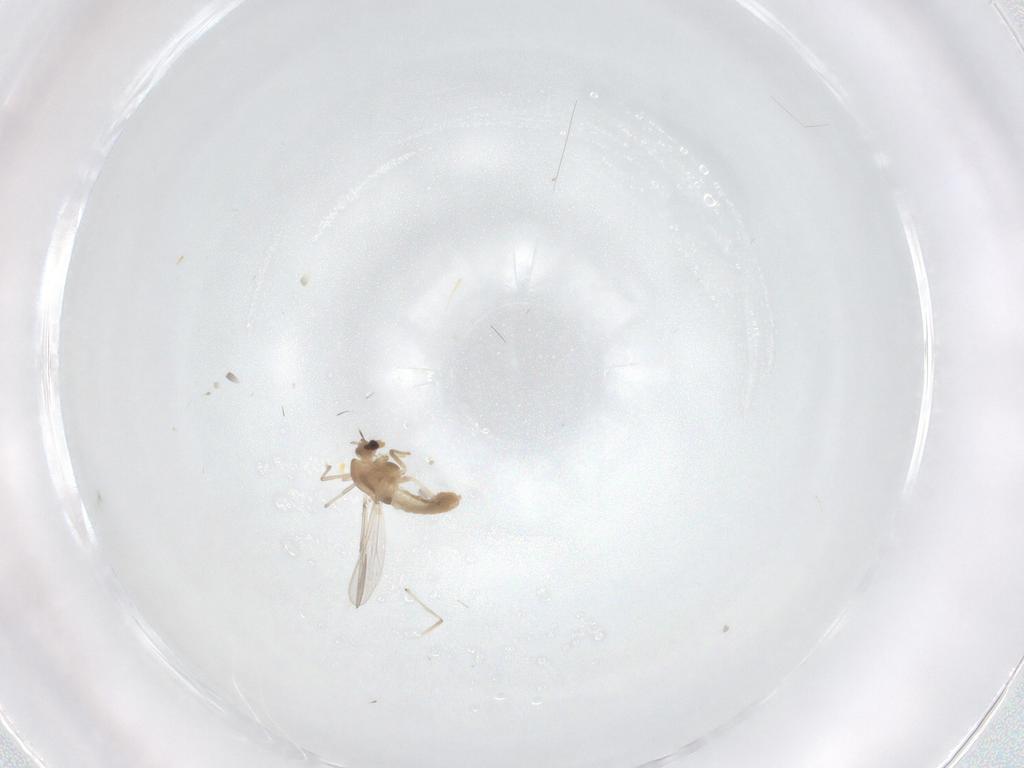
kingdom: Animalia
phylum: Arthropoda
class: Insecta
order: Diptera
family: Chironomidae
